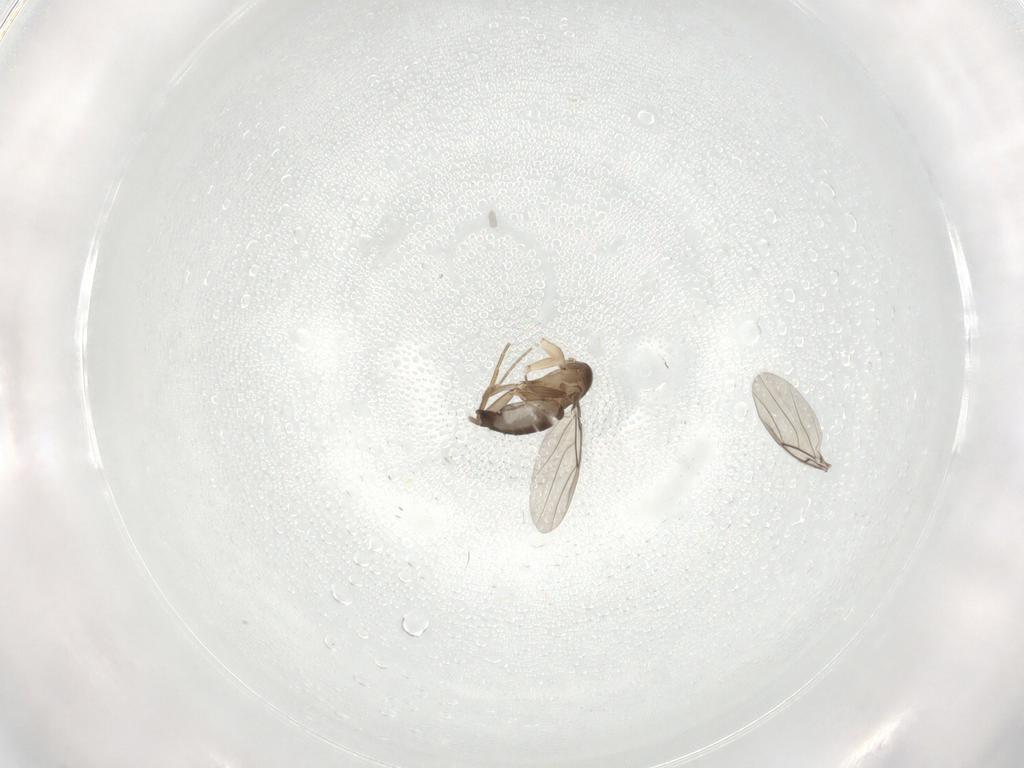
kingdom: Animalia
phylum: Arthropoda
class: Insecta
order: Diptera
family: Phoridae
